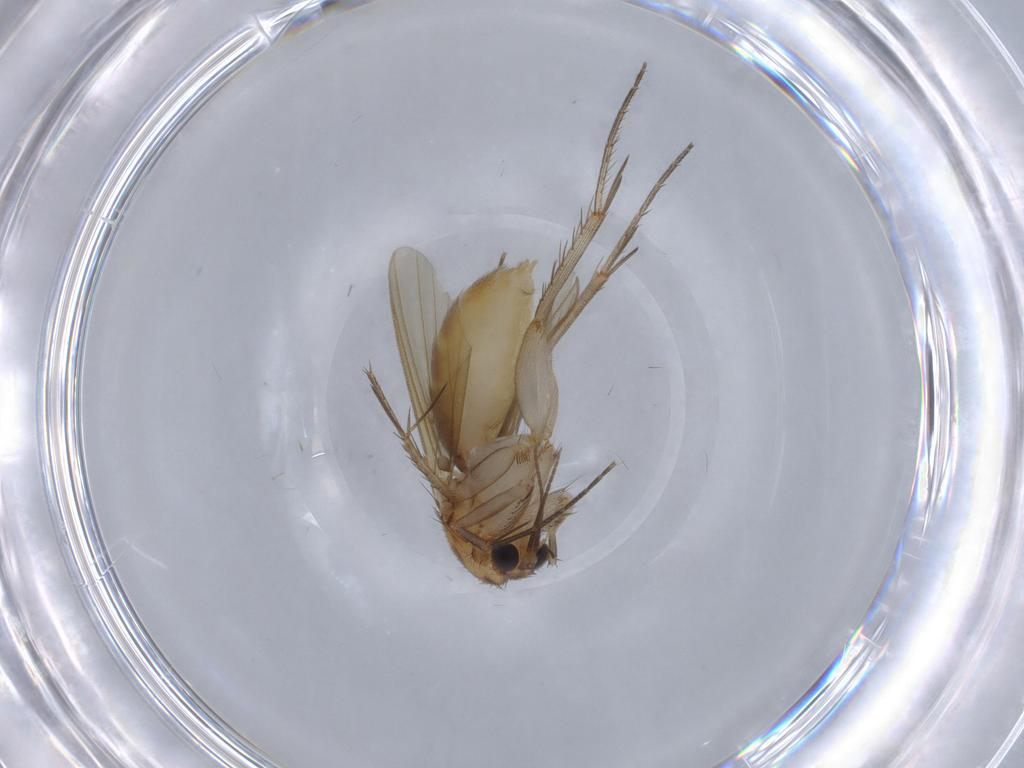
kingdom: Animalia
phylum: Arthropoda
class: Insecta
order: Diptera
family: Mycetophilidae
